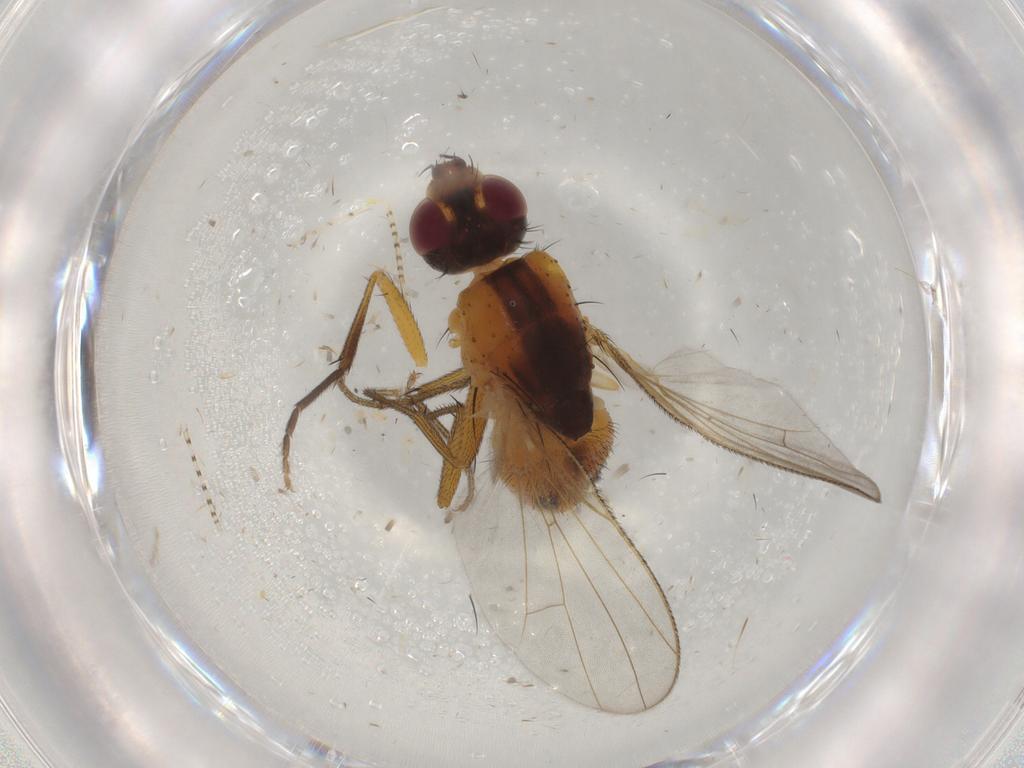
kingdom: Animalia
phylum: Arthropoda
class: Insecta
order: Diptera
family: Muscidae
